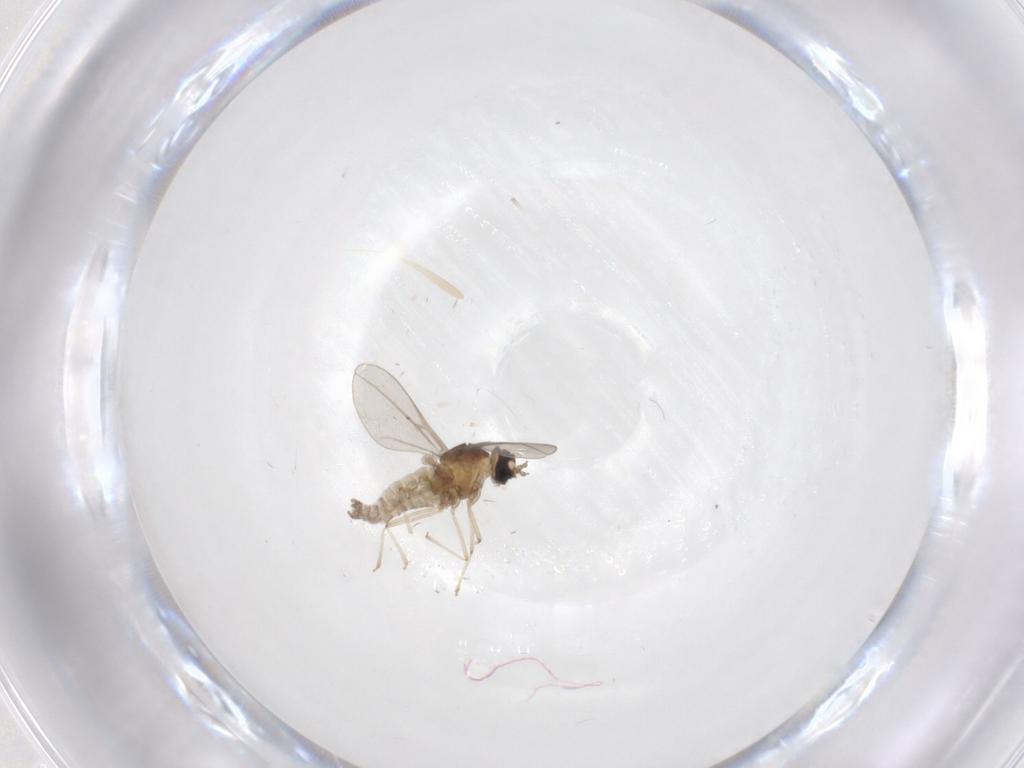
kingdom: Animalia
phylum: Arthropoda
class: Insecta
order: Diptera
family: Cecidomyiidae
